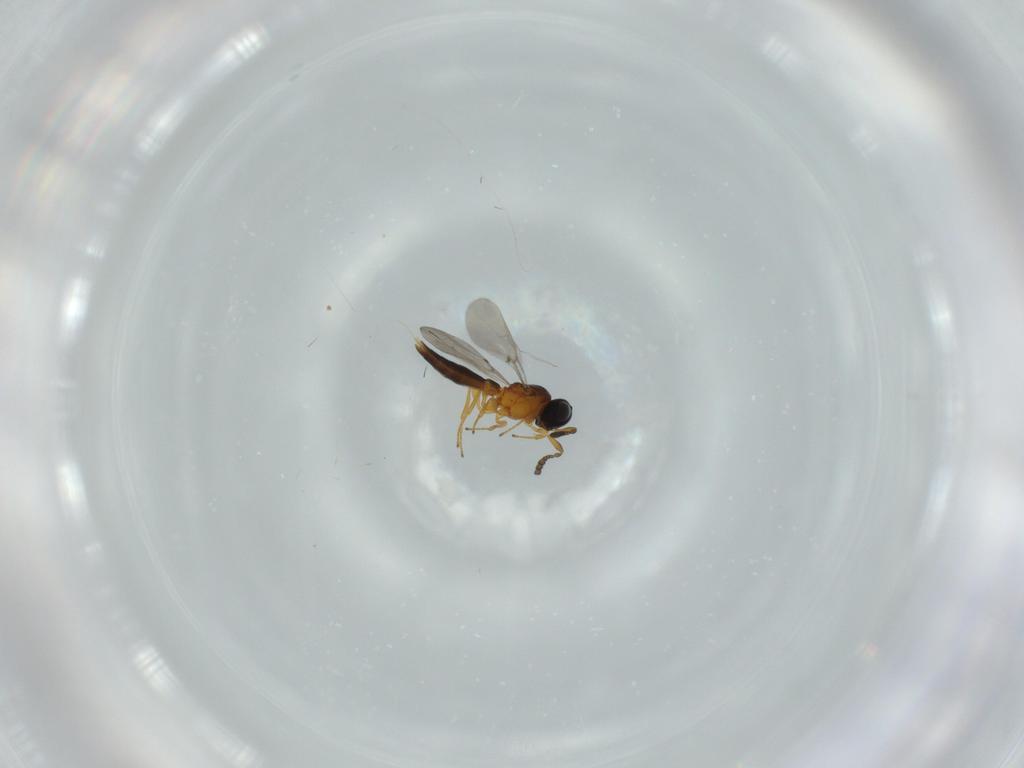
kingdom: Animalia
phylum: Arthropoda
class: Insecta
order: Hymenoptera
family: Platygastridae
